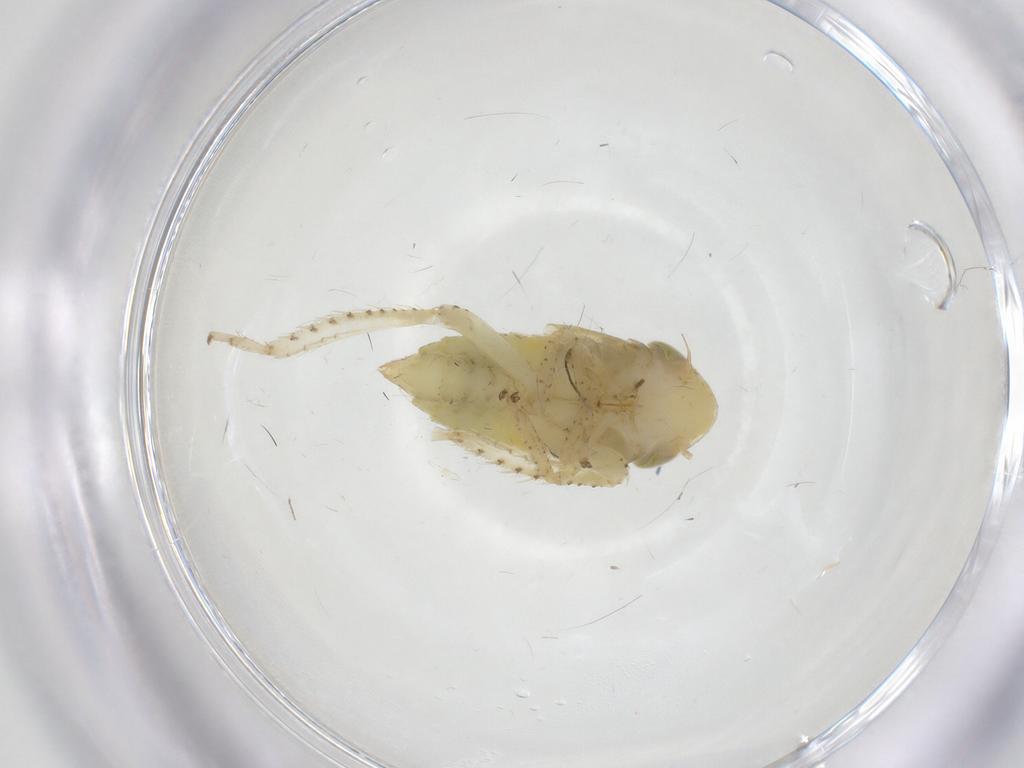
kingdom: Animalia
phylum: Arthropoda
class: Insecta
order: Hemiptera
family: Cicadellidae
